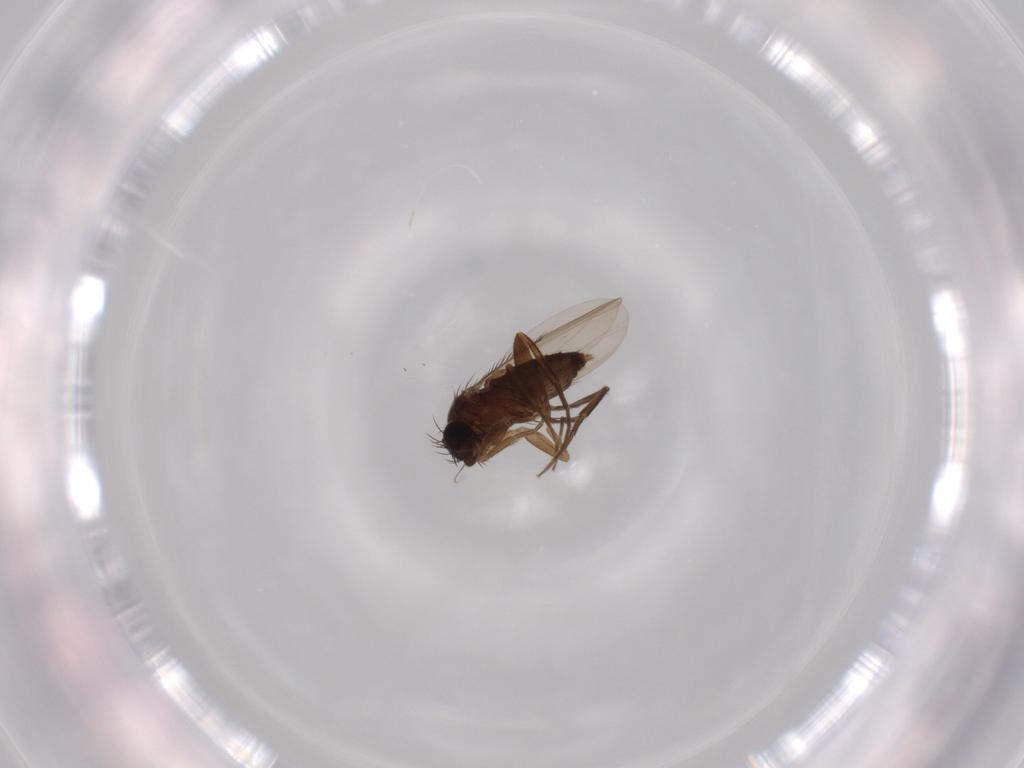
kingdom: Animalia
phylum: Arthropoda
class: Insecta
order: Diptera
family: Phoridae
